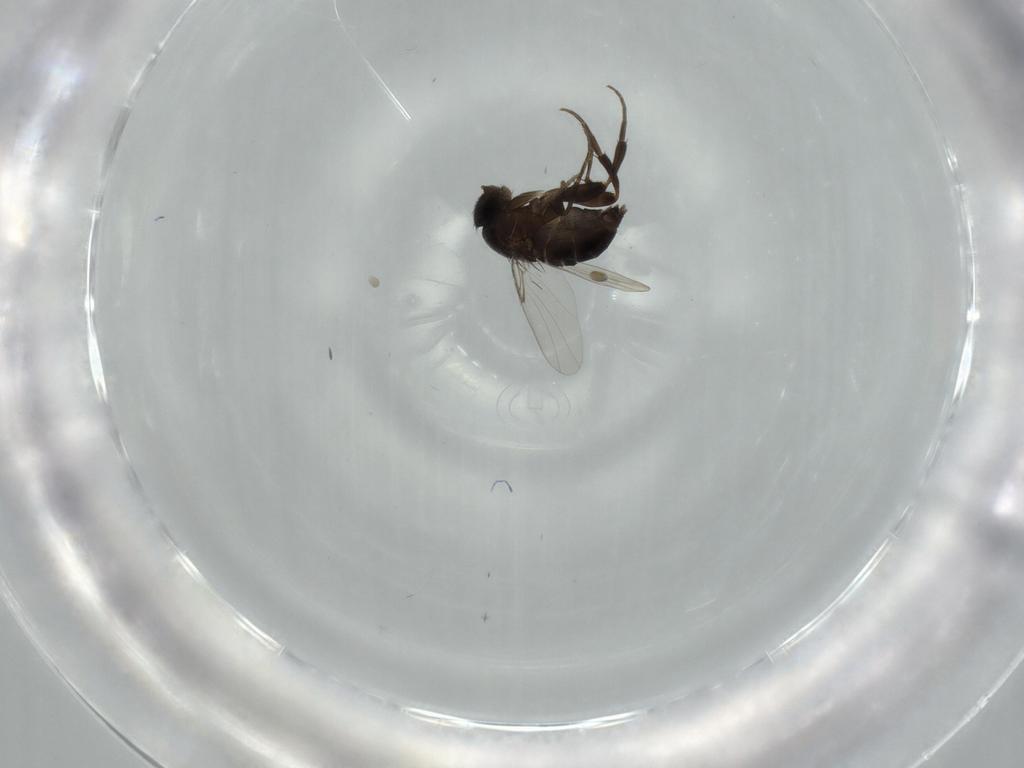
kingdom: Animalia
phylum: Arthropoda
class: Insecta
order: Diptera
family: Phoridae
